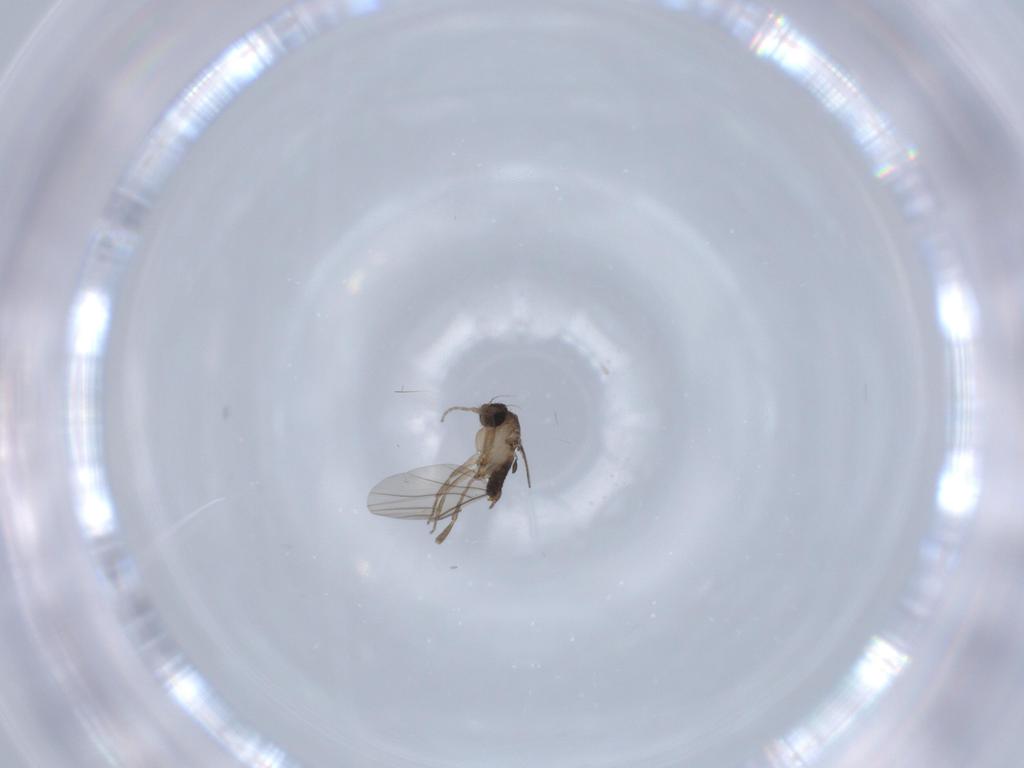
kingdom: Animalia
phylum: Arthropoda
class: Insecta
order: Diptera
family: Phoridae
